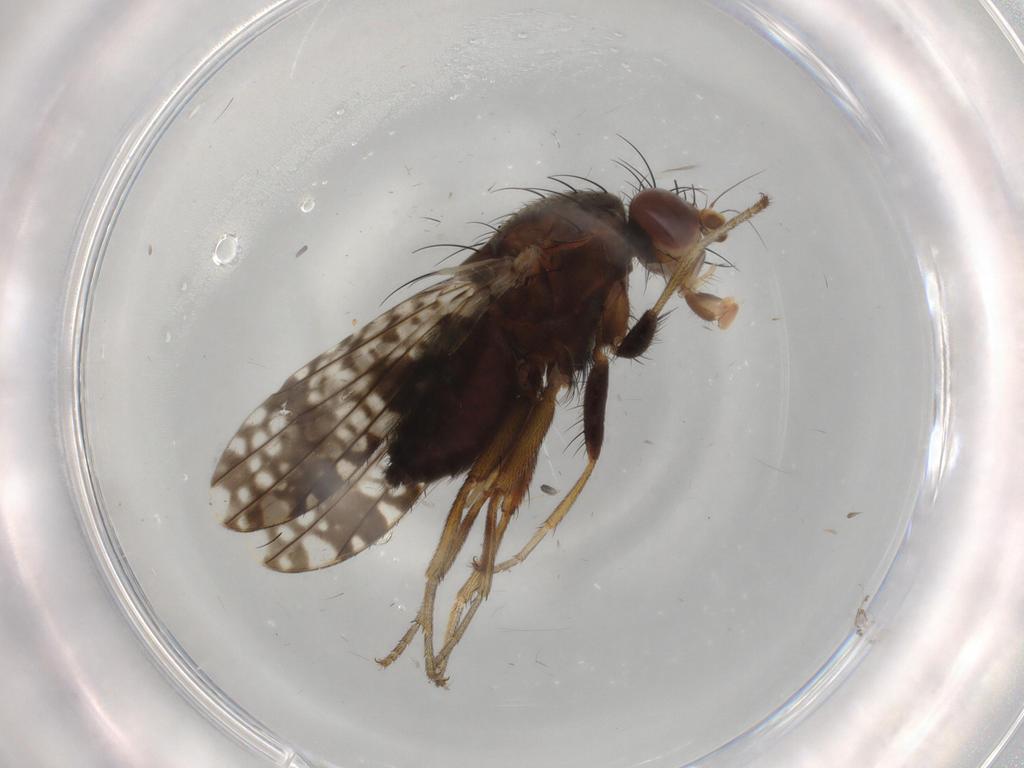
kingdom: Animalia
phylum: Arthropoda
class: Insecta
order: Diptera
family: Tephritidae
